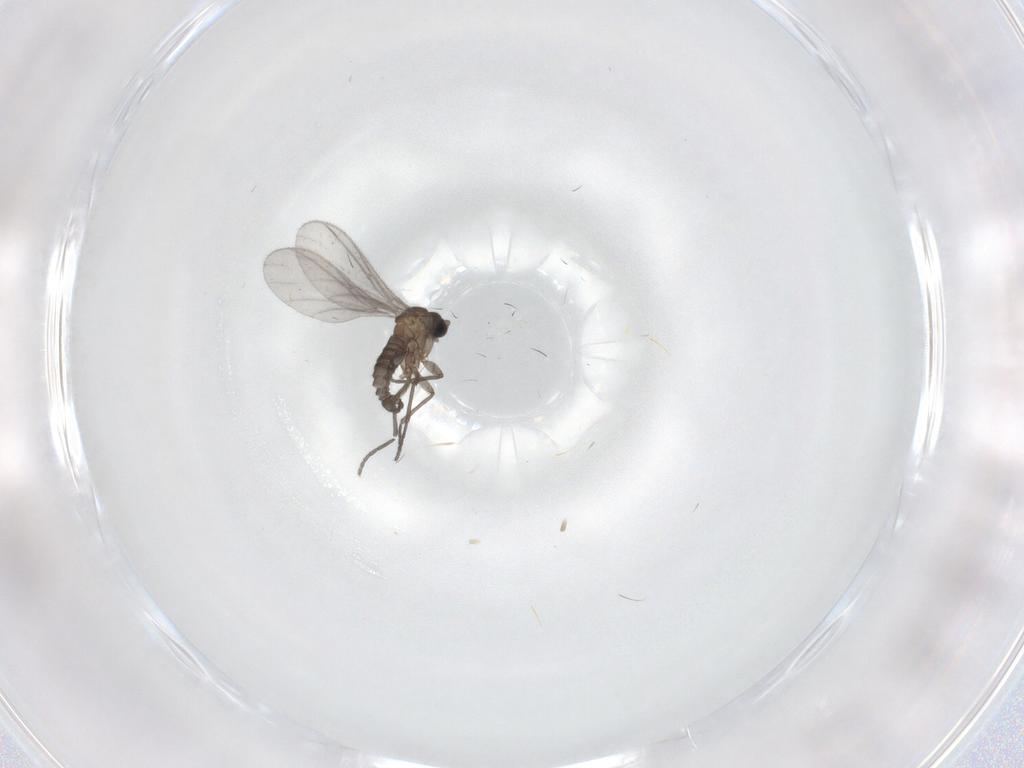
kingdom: Animalia
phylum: Arthropoda
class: Insecta
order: Diptera
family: Sciaridae
